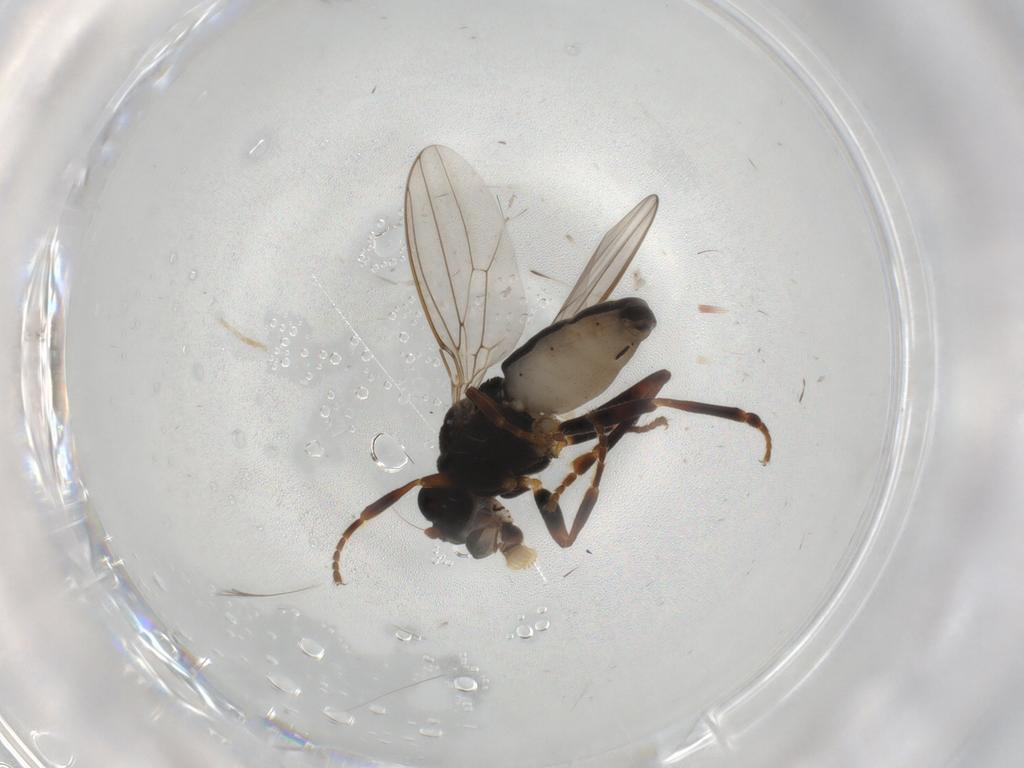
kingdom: Animalia
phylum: Arthropoda
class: Insecta
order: Diptera
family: Sphaeroceridae
